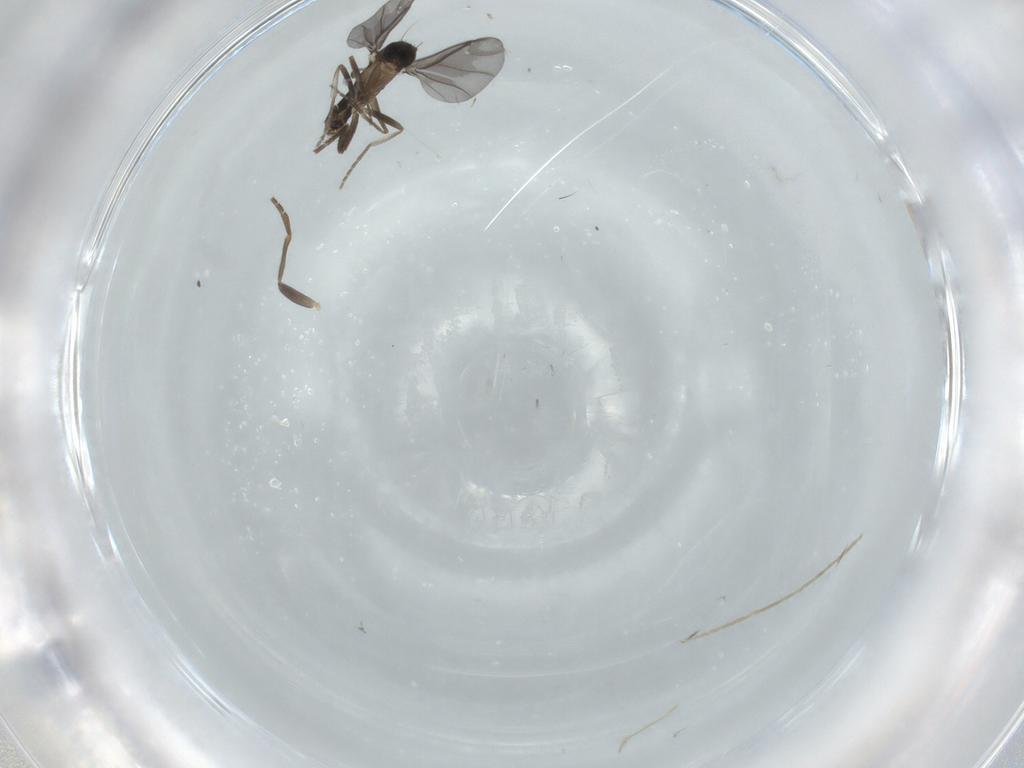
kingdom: Animalia
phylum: Arthropoda
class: Insecta
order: Diptera
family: Phoridae
